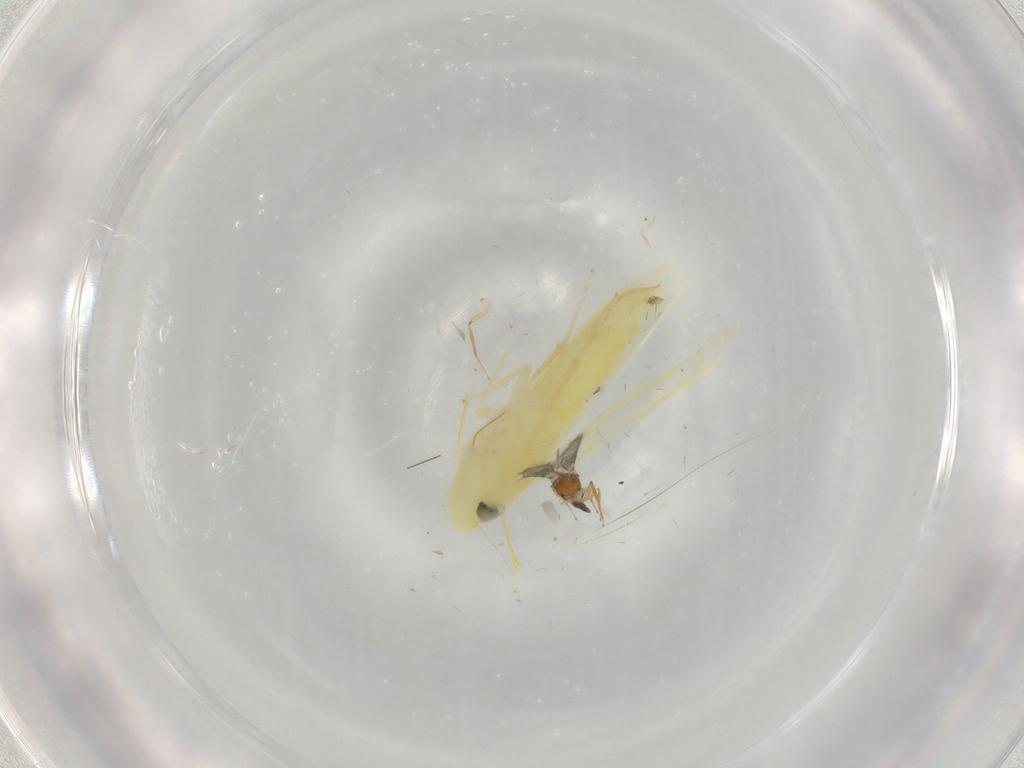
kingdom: Animalia
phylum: Arthropoda
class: Insecta
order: Hemiptera
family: Cicadellidae
